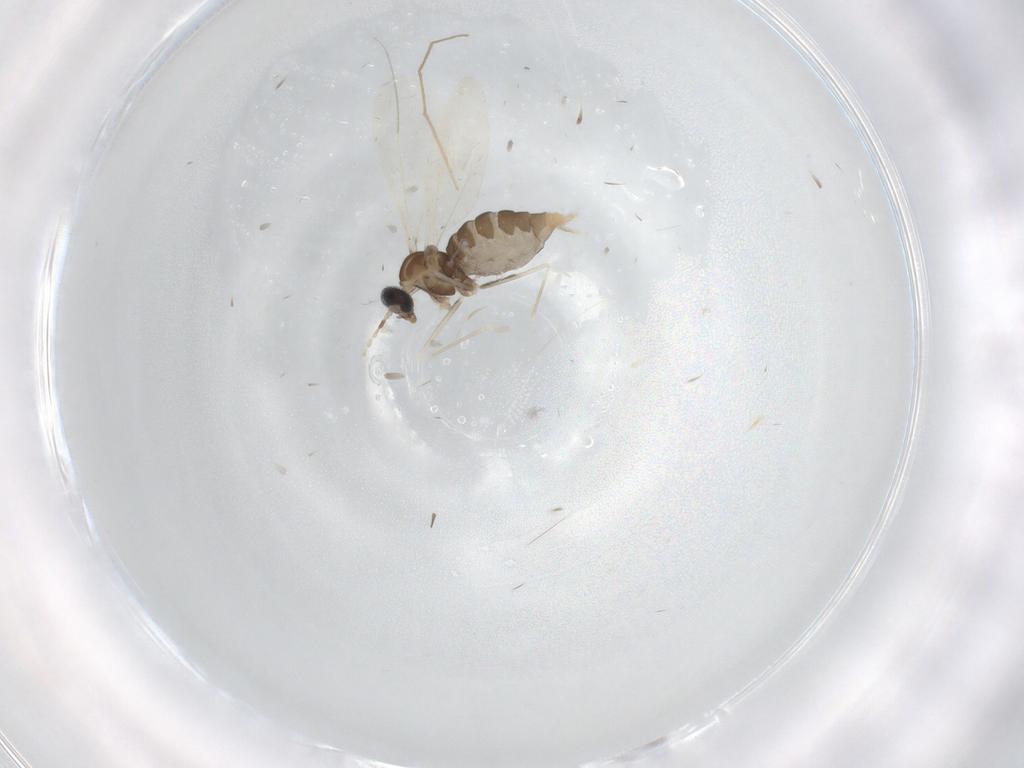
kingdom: Animalia
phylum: Arthropoda
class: Insecta
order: Diptera
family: Cecidomyiidae
